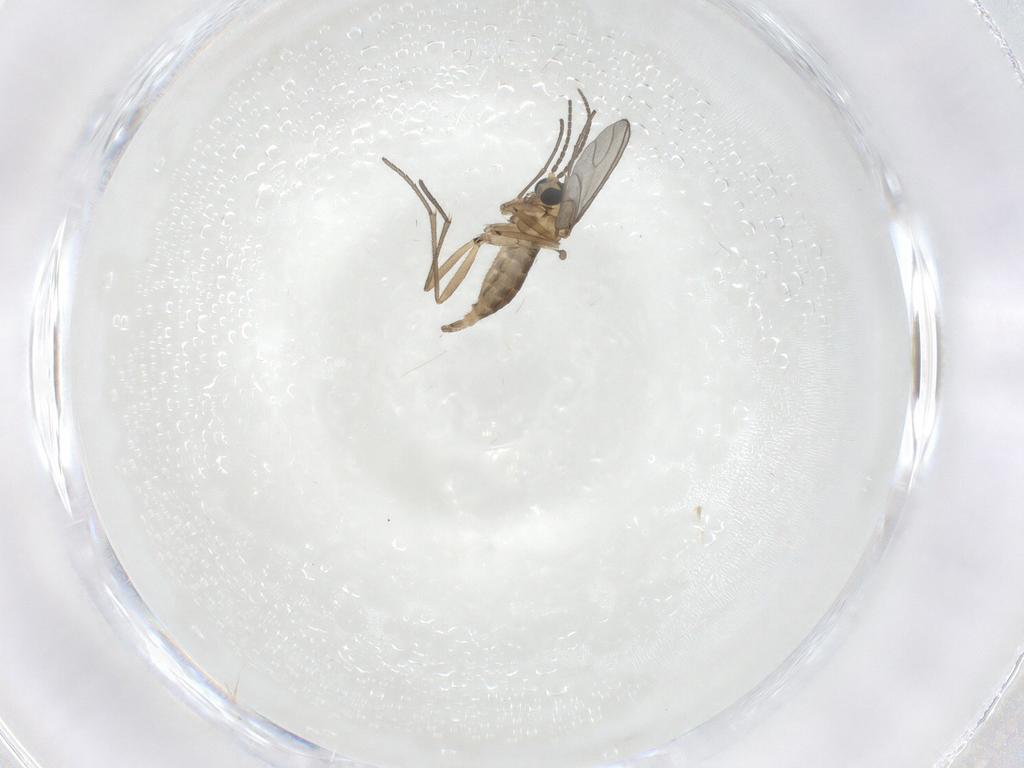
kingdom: Animalia
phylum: Arthropoda
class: Insecta
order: Diptera
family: Sciaridae
